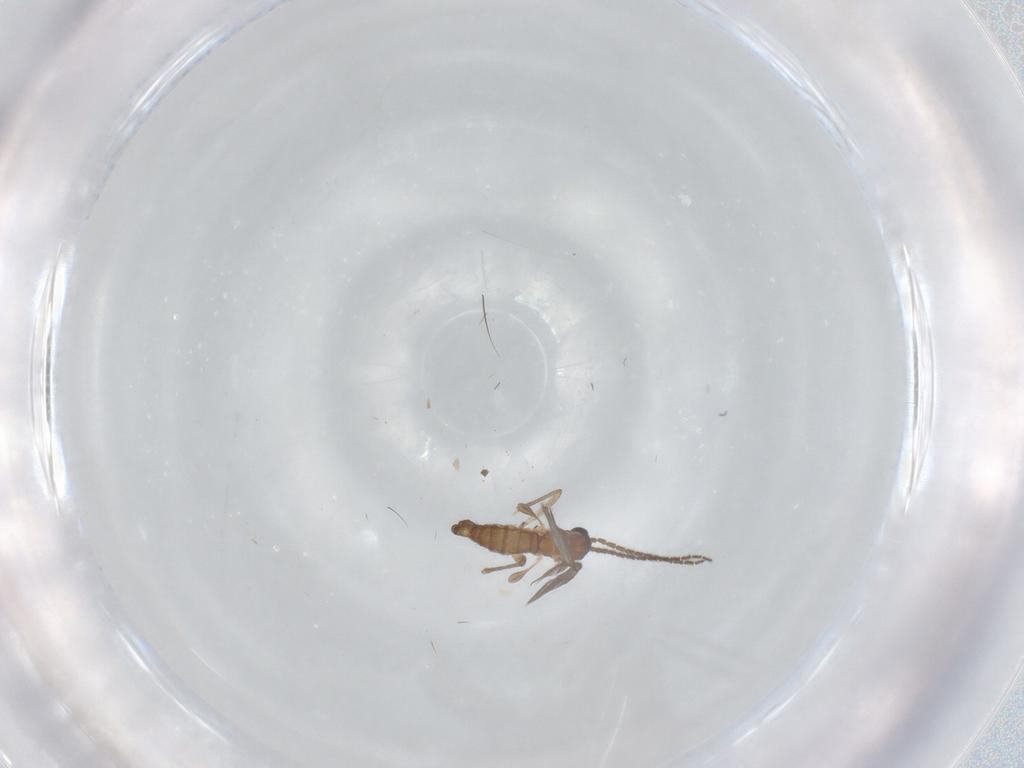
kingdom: Animalia
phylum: Arthropoda
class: Insecta
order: Diptera
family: Sciaridae
